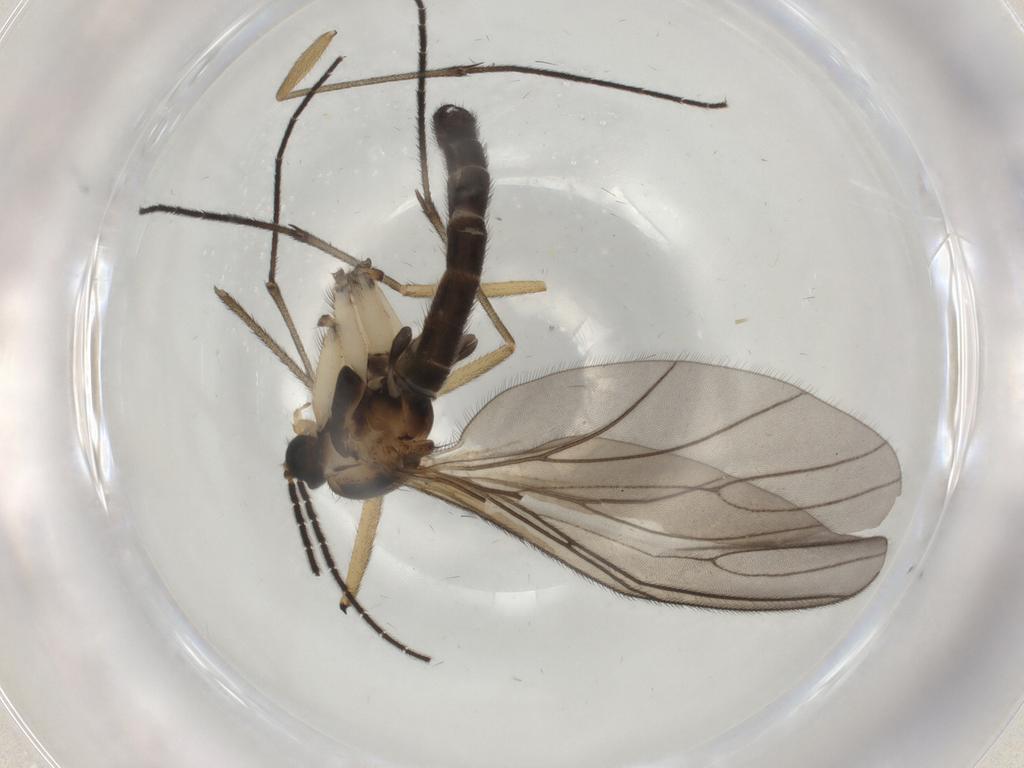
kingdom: Animalia
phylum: Arthropoda
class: Insecta
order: Diptera
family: Sciaridae
